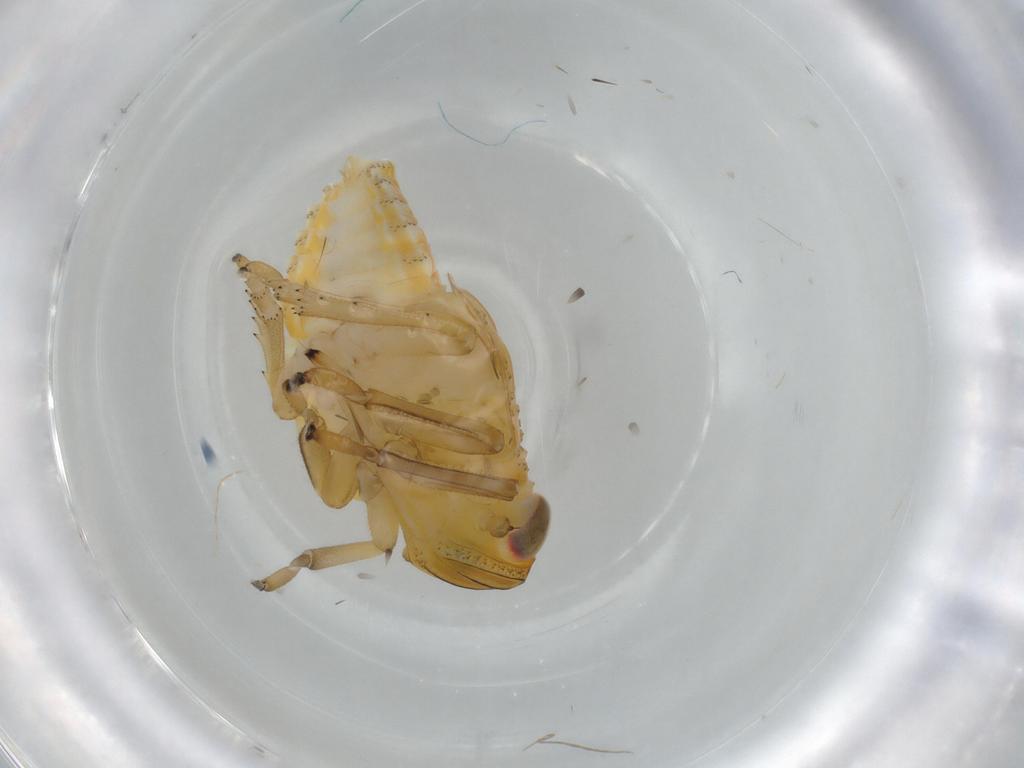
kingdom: Animalia
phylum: Arthropoda
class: Insecta
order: Hemiptera
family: Issidae
